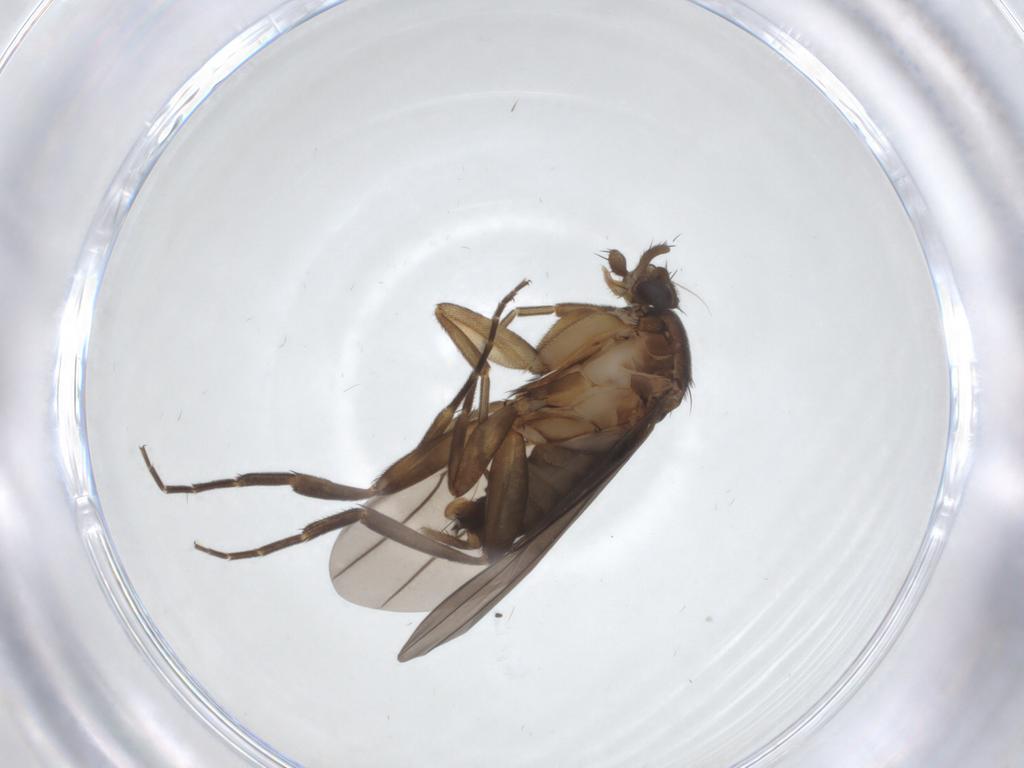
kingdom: Animalia
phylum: Arthropoda
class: Insecta
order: Diptera
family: Phoridae
